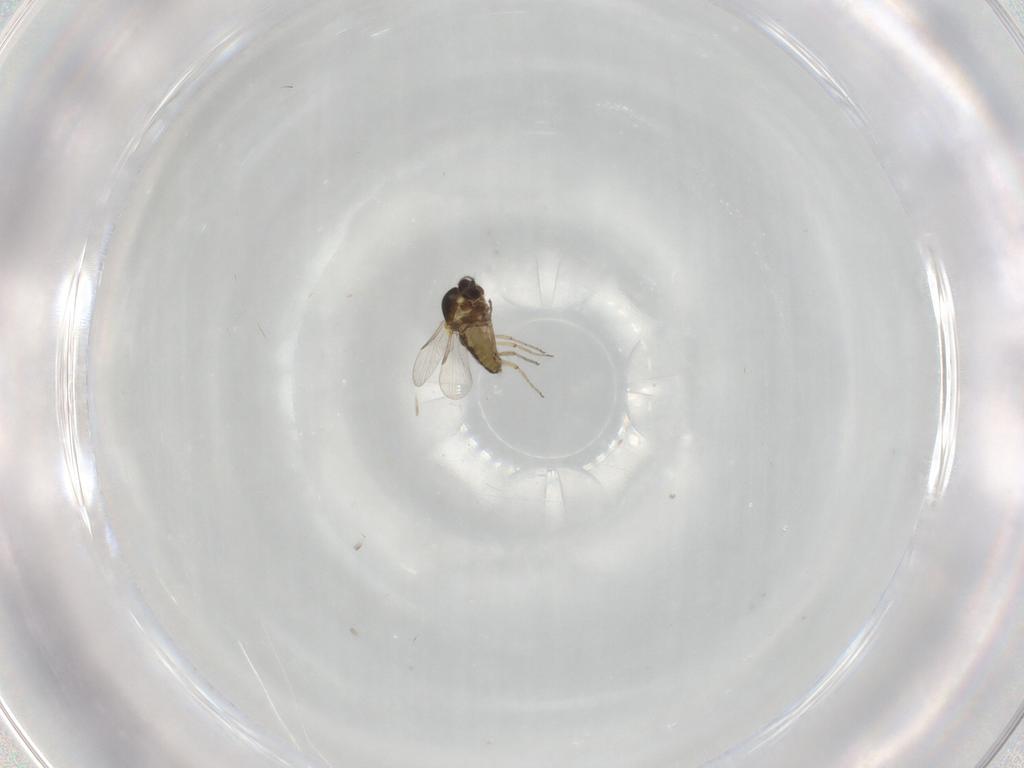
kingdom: Animalia
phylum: Arthropoda
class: Insecta
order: Diptera
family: Ceratopogonidae
